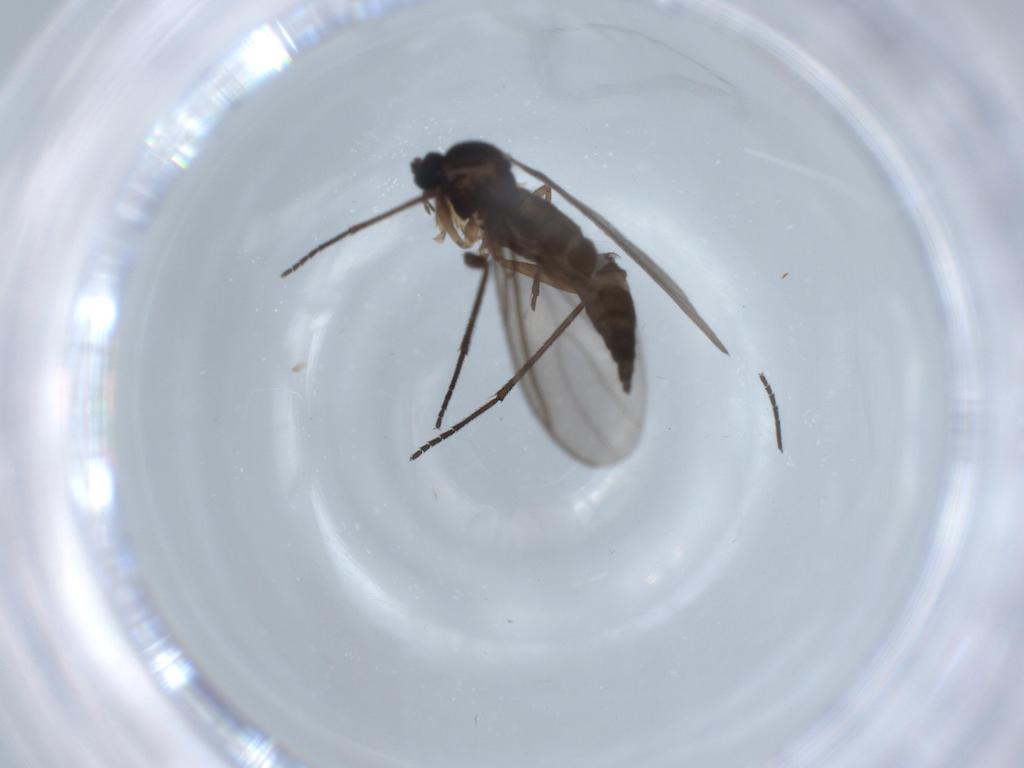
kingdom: Animalia
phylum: Arthropoda
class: Insecta
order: Diptera
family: Sciaridae
